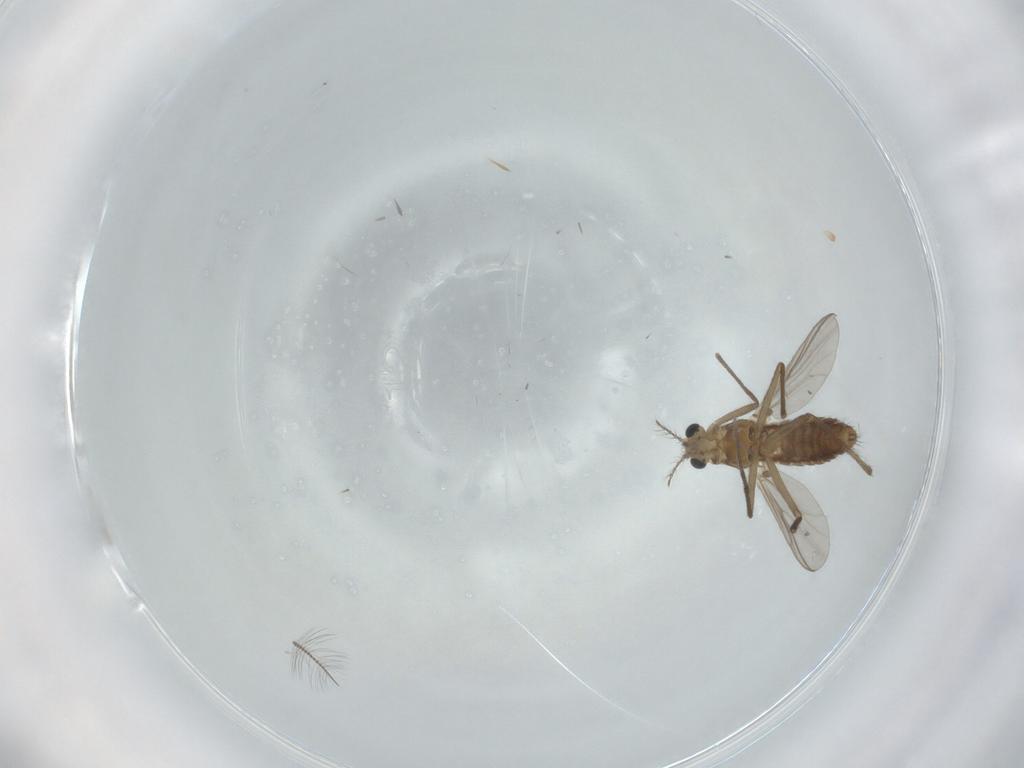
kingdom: Animalia
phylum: Arthropoda
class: Insecta
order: Diptera
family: Chironomidae
